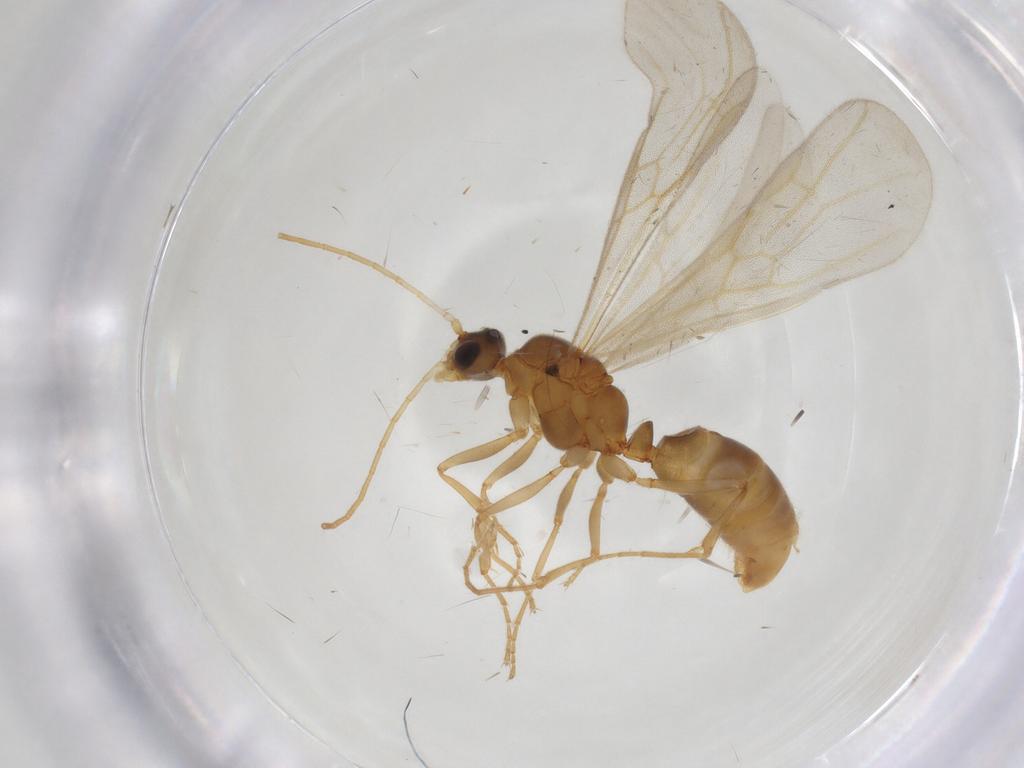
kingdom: Animalia
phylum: Arthropoda
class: Insecta
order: Hymenoptera
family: Formicidae
